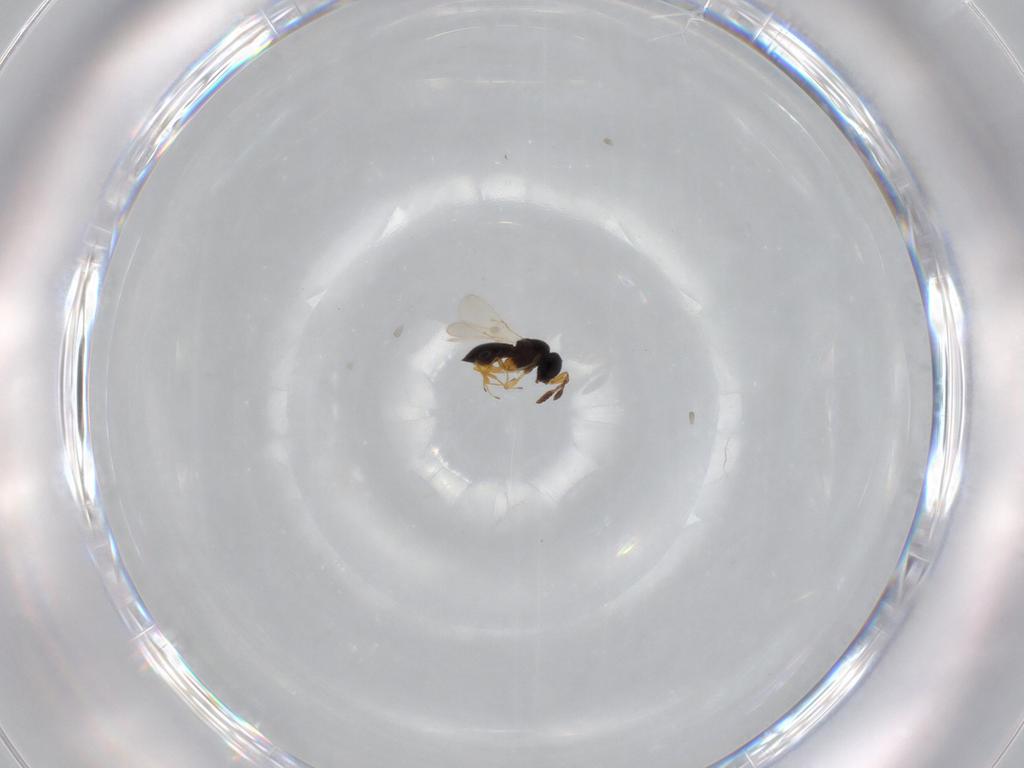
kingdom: Animalia
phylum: Arthropoda
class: Insecta
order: Hymenoptera
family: Scelionidae
